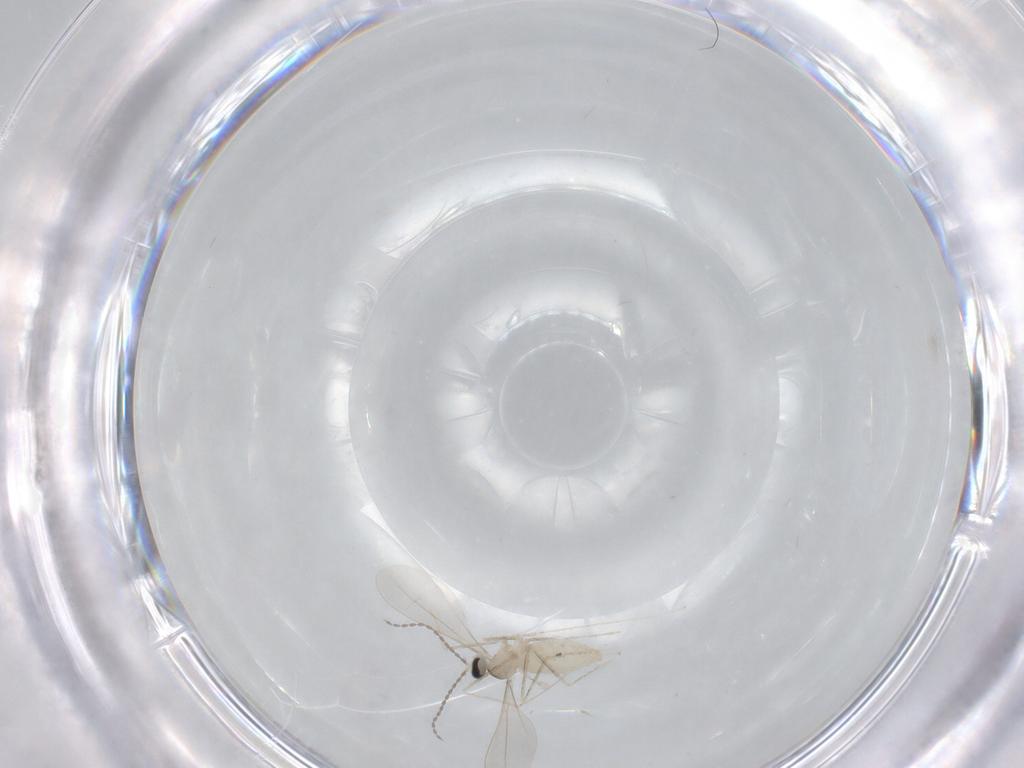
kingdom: Animalia
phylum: Arthropoda
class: Insecta
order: Diptera
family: Cecidomyiidae
